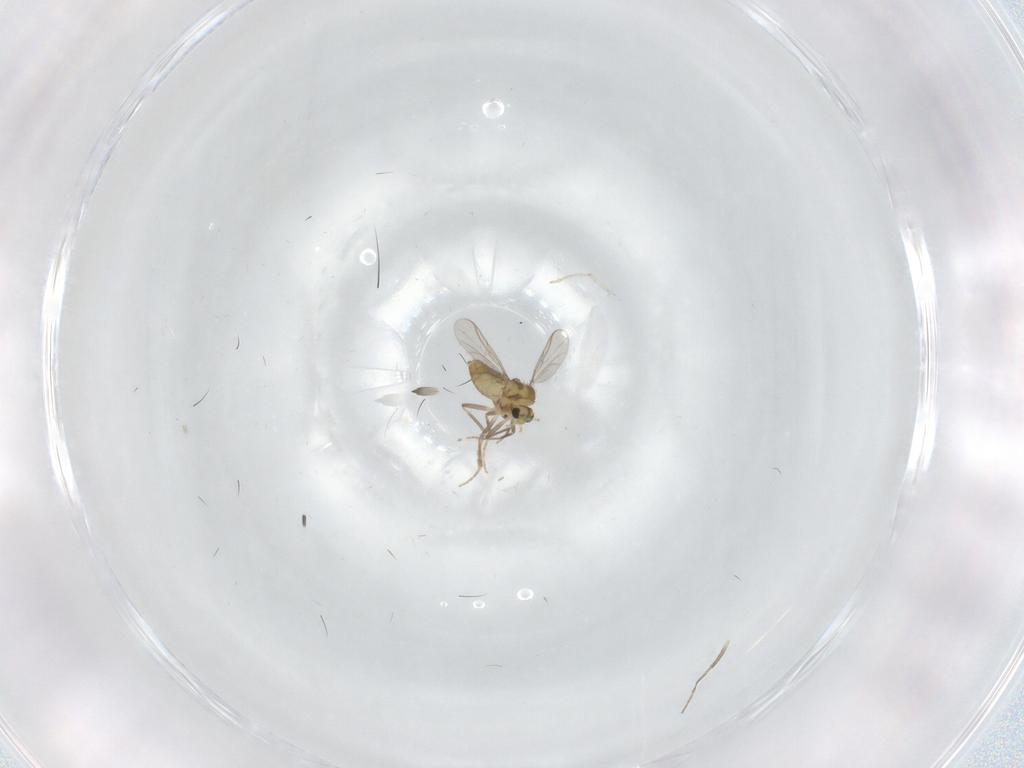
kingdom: Animalia
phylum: Arthropoda
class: Insecta
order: Diptera
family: Chironomidae
